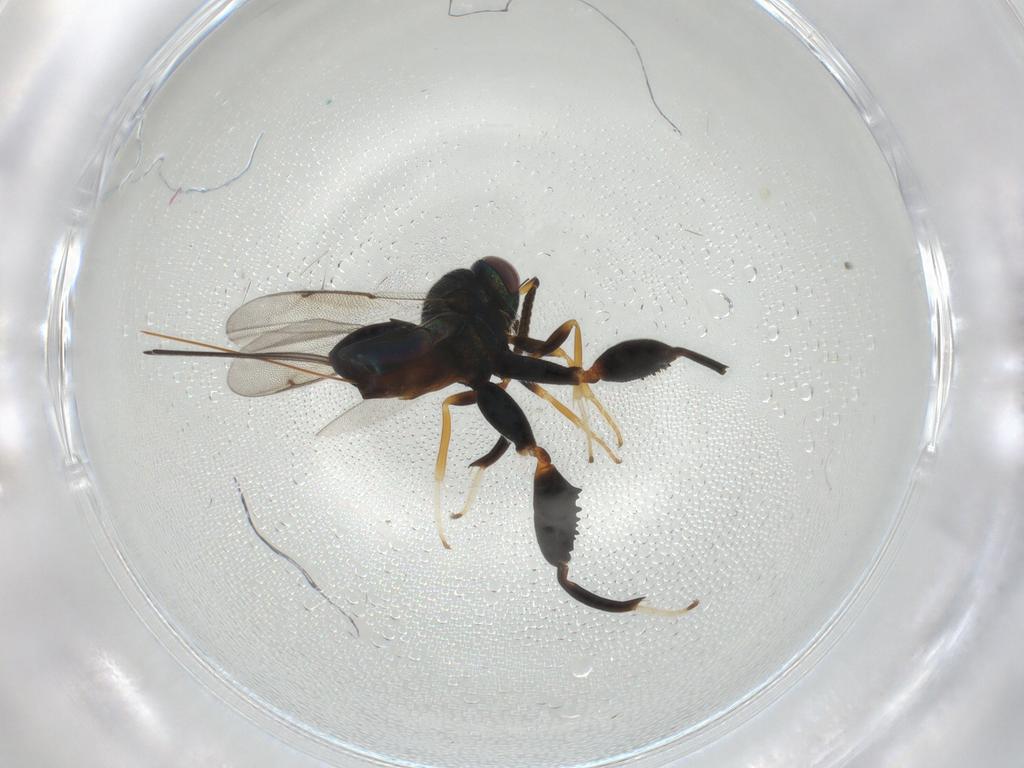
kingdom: Animalia
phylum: Arthropoda
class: Insecta
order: Hymenoptera
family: Torymidae
